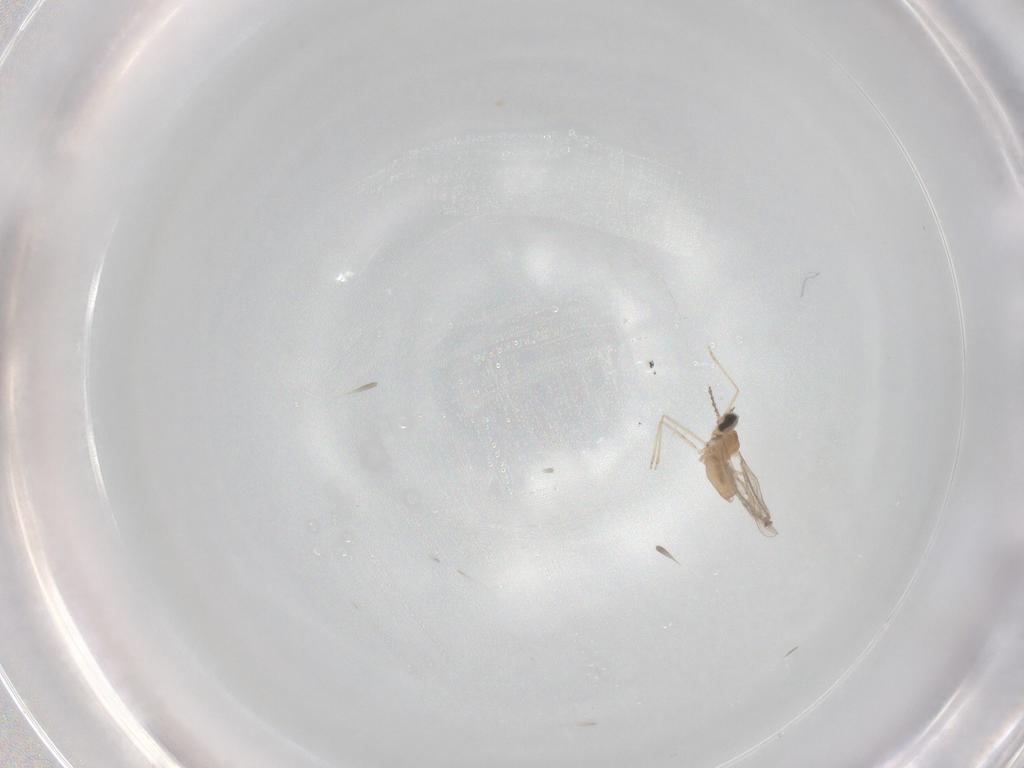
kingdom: Animalia
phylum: Arthropoda
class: Insecta
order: Diptera
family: Cecidomyiidae
